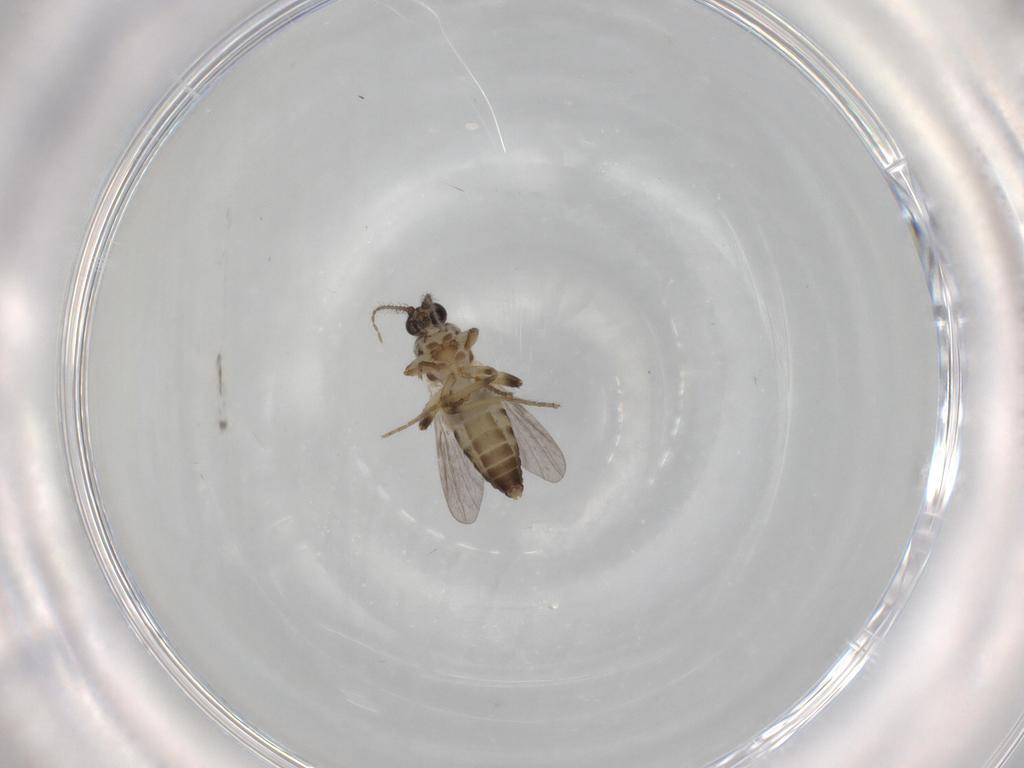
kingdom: Animalia
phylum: Arthropoda
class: Insecta
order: Diptera
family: Ceratopogonidae
